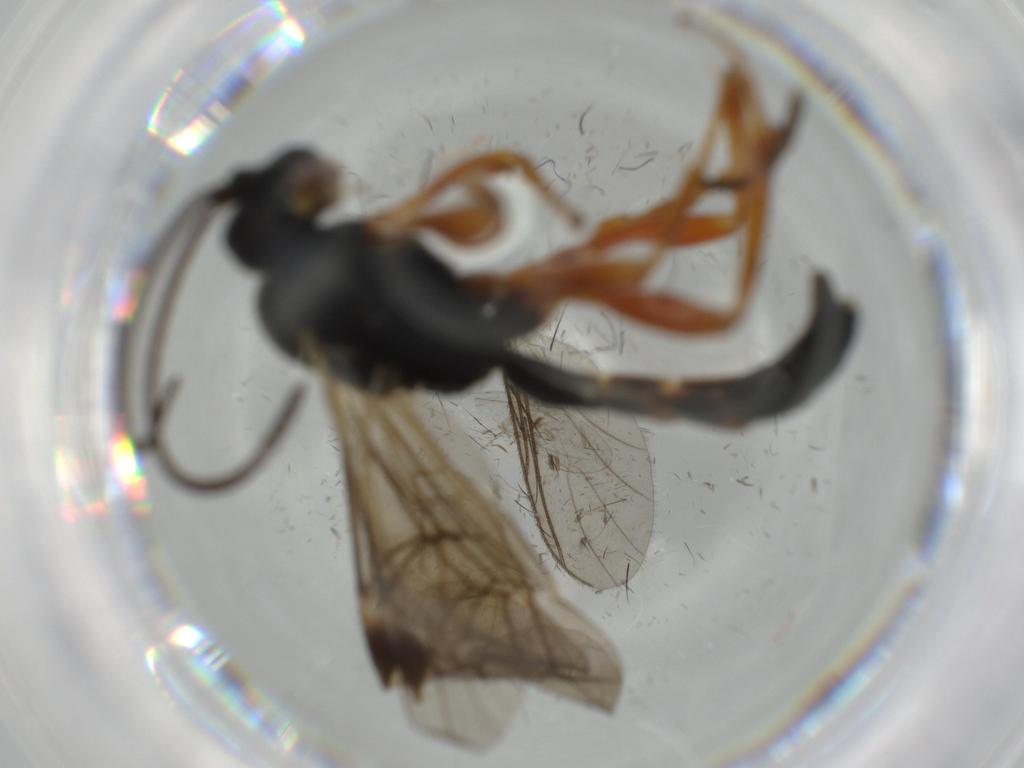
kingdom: Animalia
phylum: Arthropoda
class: Insecta
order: Hymenoptera
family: Ichneumonidae
